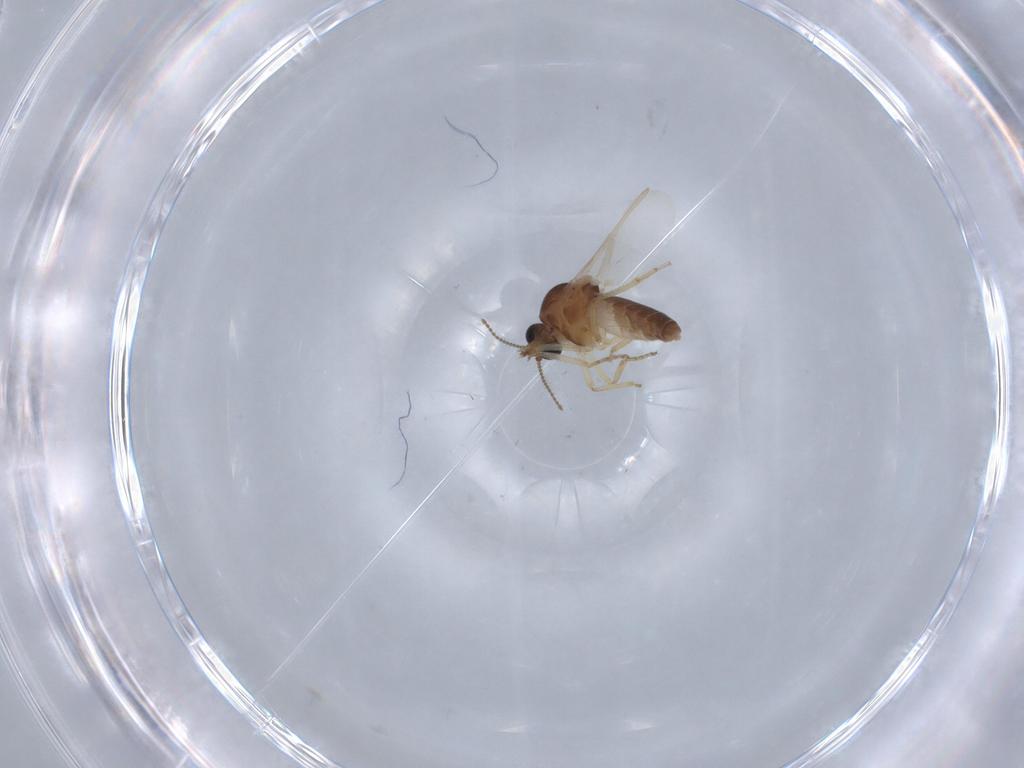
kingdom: Animalia
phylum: Arthropoda
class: Insecta
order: Diptera
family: Ceratopogonidae
